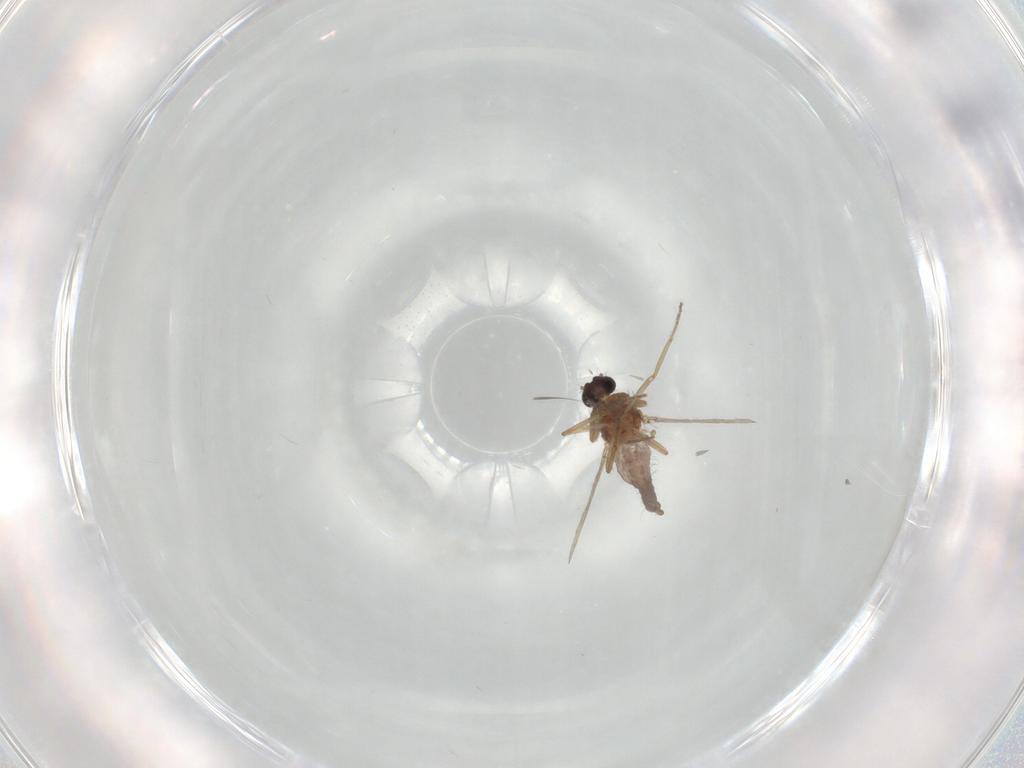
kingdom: Animalia
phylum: Arthropoda
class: Insecta
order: Diptera
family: Ceratopogonidae
